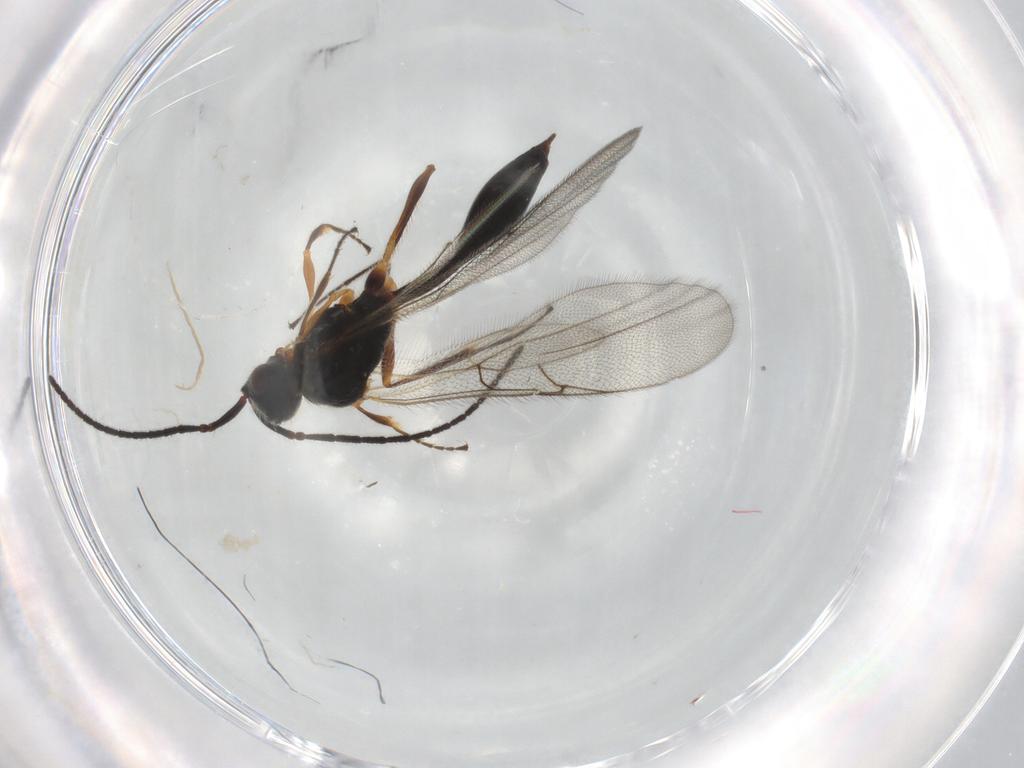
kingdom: Animalia
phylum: Arthropoda
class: Insecta
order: Hymenoptera
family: Diapriidae
